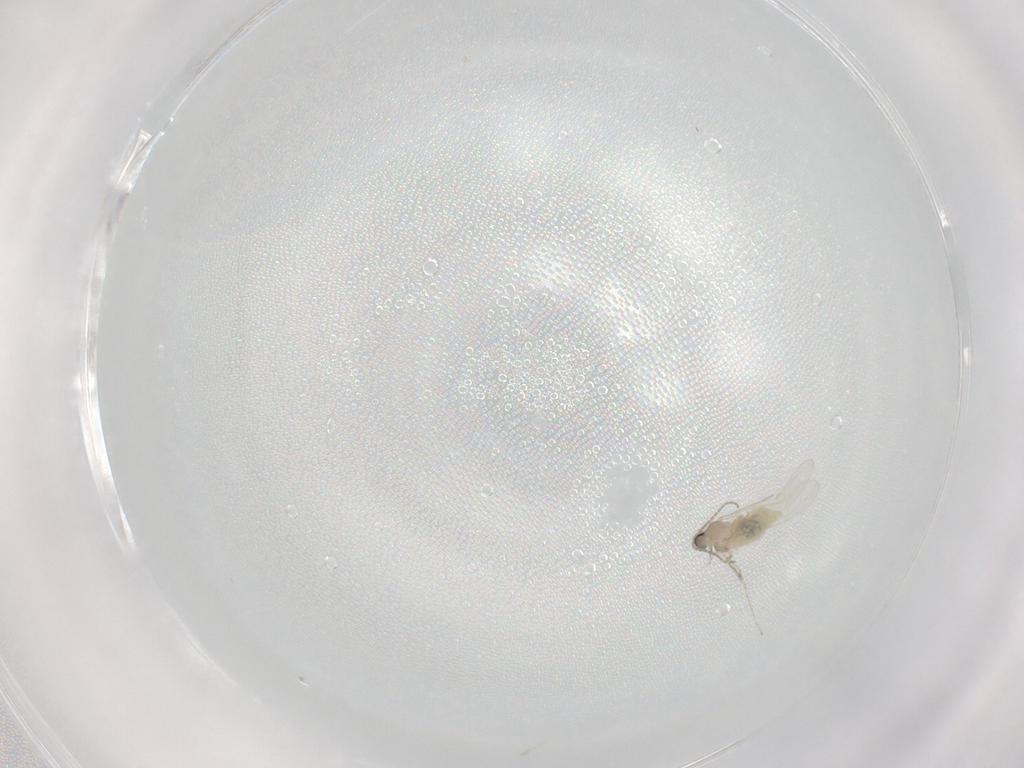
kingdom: Animalia
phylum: Arthropoda
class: Insecta
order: Diptera
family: Cecidomyiidae
